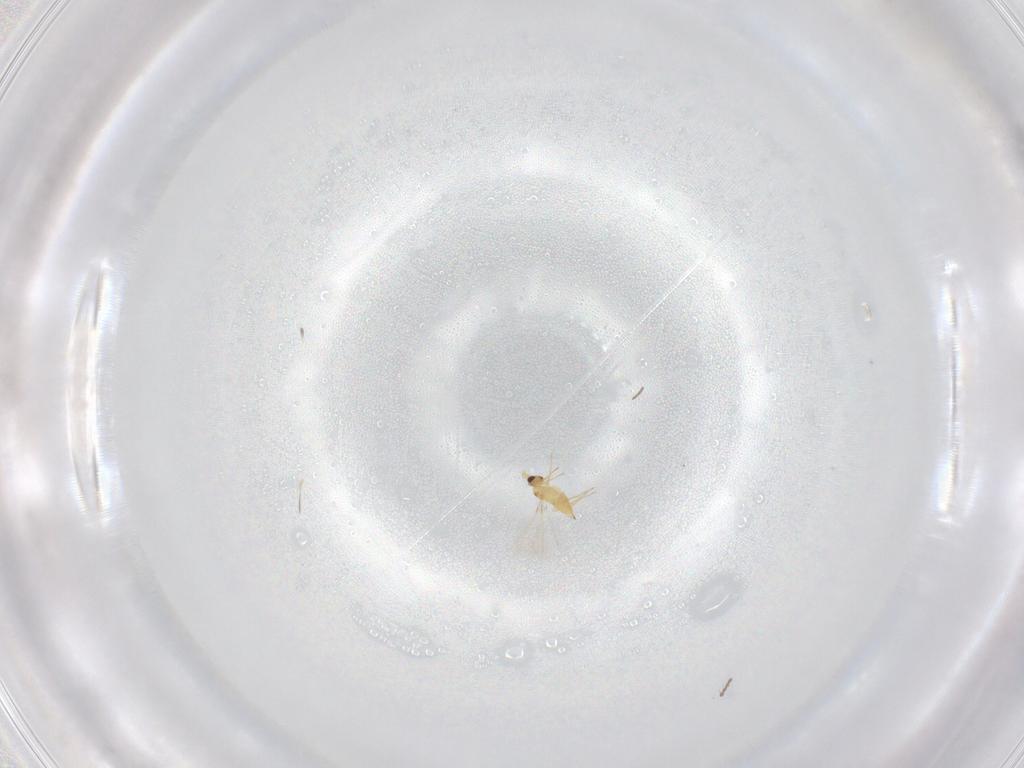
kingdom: Animalia
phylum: Arthropoda
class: Insecta
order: Hymenoptera
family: Mymaridae
